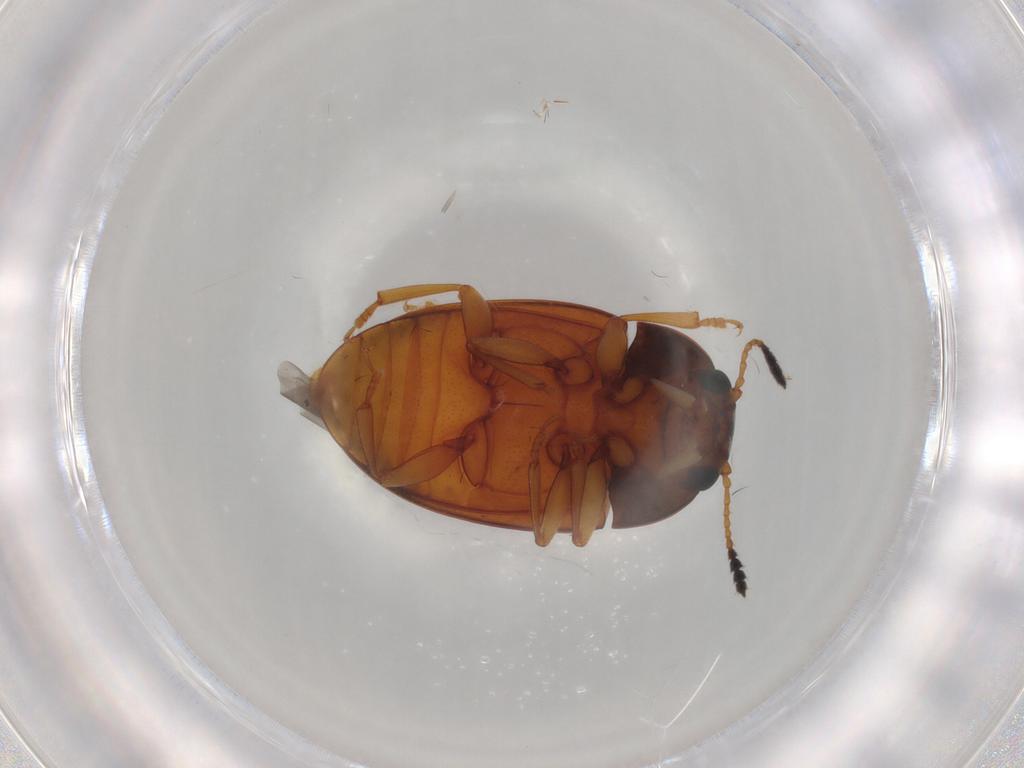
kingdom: Animalia
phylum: Arthropoda
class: Insecta
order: Coleoptera
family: Erotylidae
